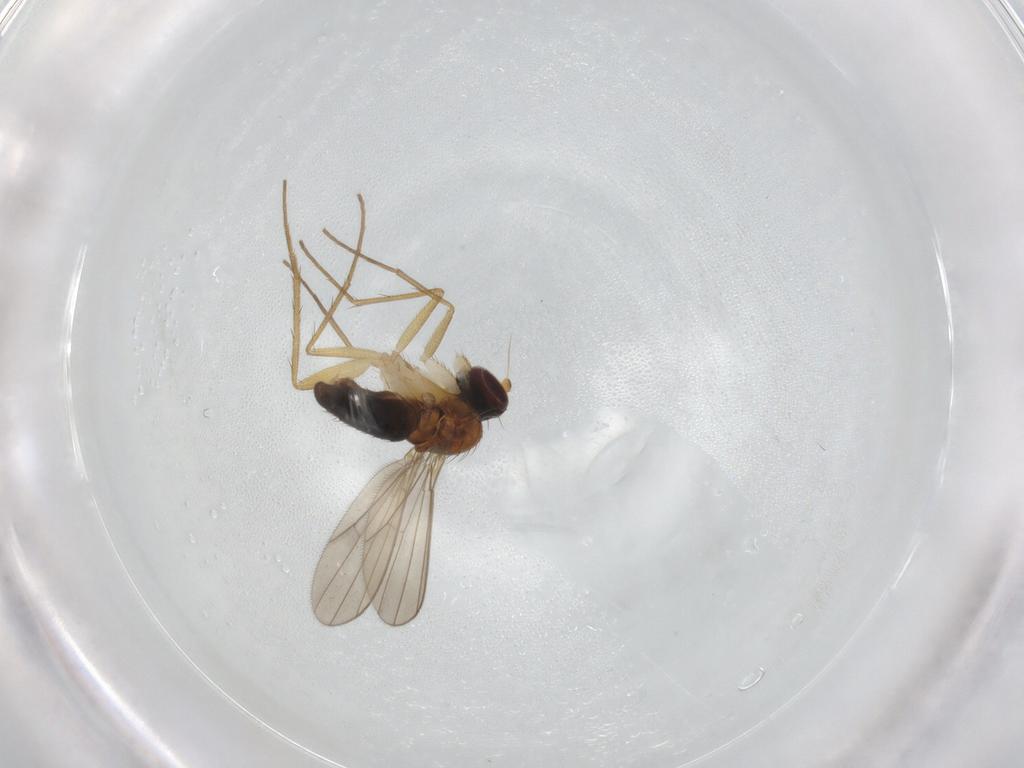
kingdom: Animalia
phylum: Arthropoda
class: Insecta
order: Diptera
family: Dolichopodidae
